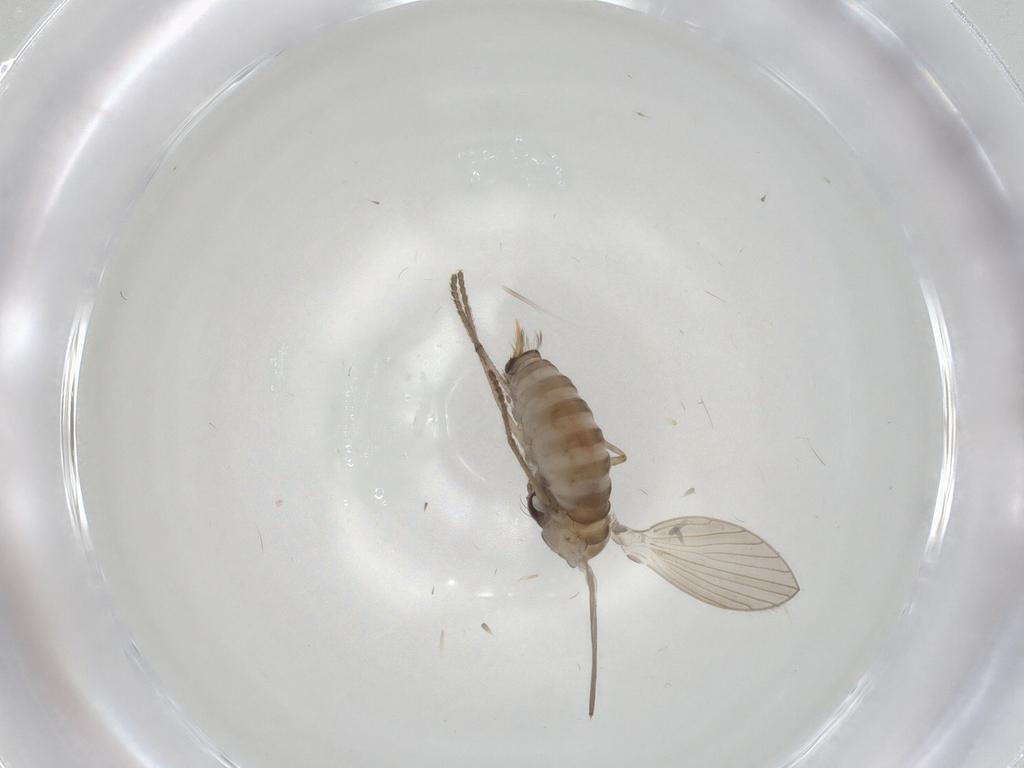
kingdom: Animalia
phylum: Arthropoda
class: Insecta
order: Diptera
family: Psychodidae
